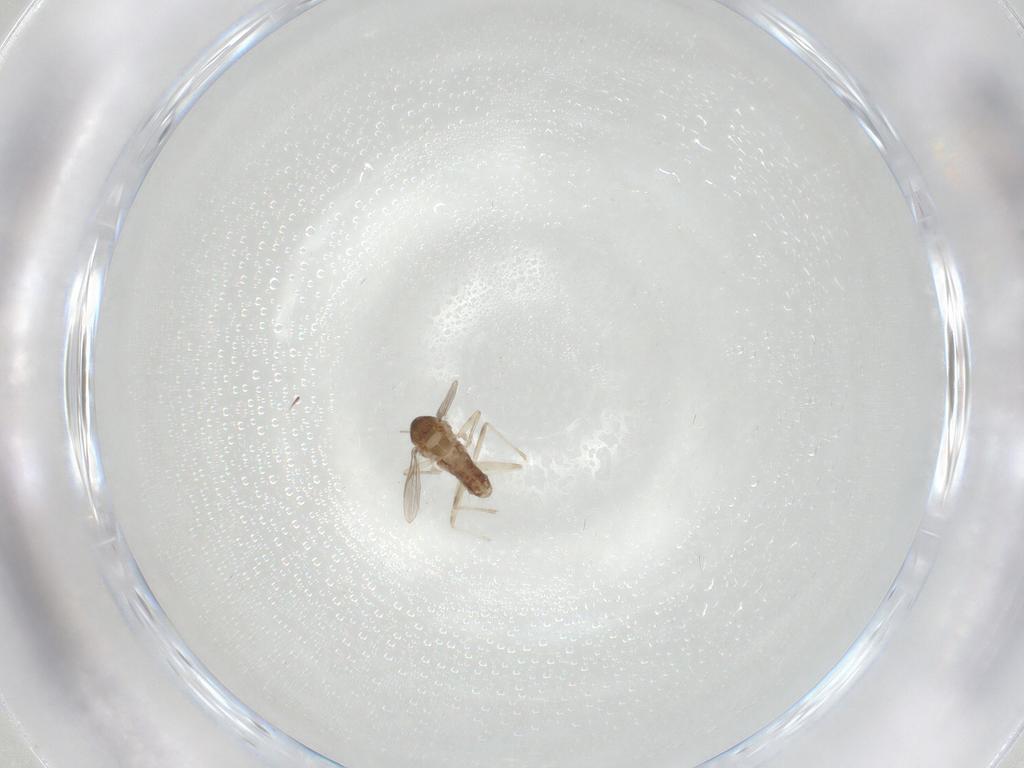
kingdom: Animalia
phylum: Arthropoda
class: Insecta
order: Diptera
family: Chironomidae
